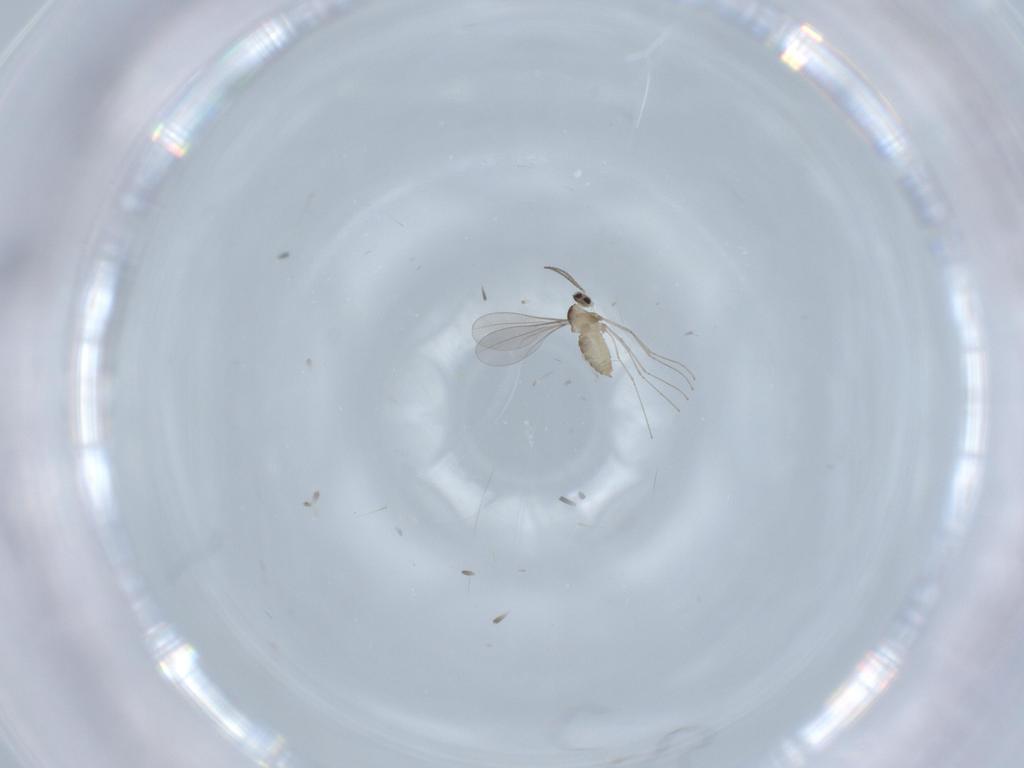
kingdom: Animalia
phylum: Arthropoda
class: Insecta
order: Diptera
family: Cecidomyiidae
